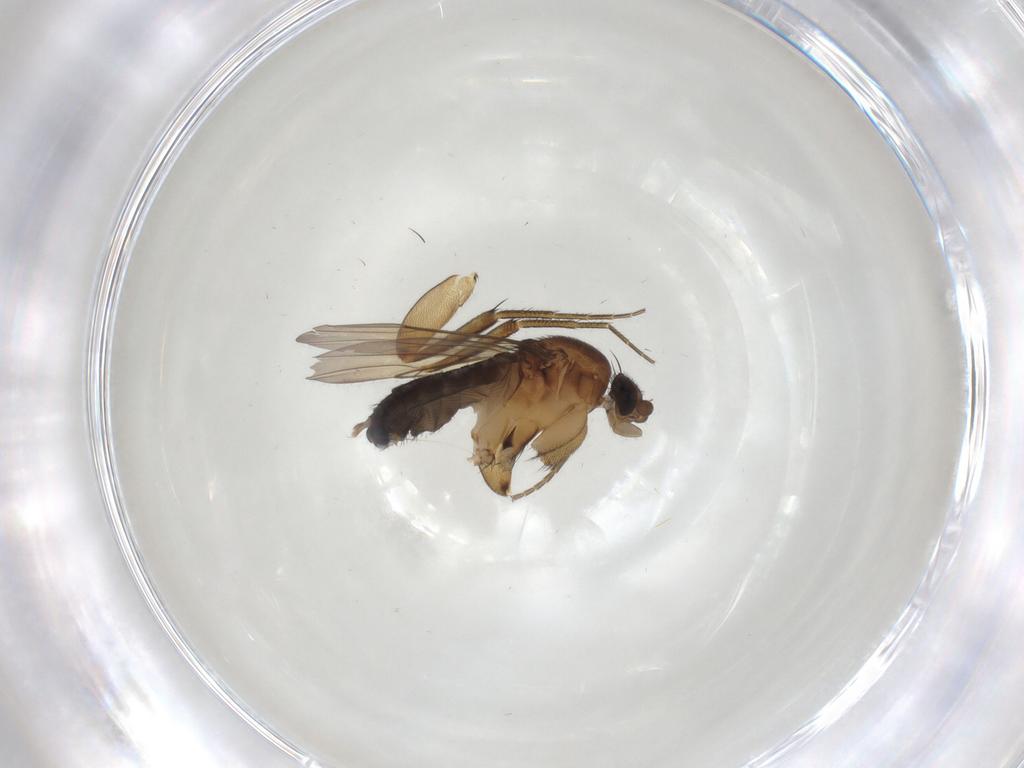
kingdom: Animalia
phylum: Arthropoda
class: Insecta
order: Diptera
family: Phoridae
